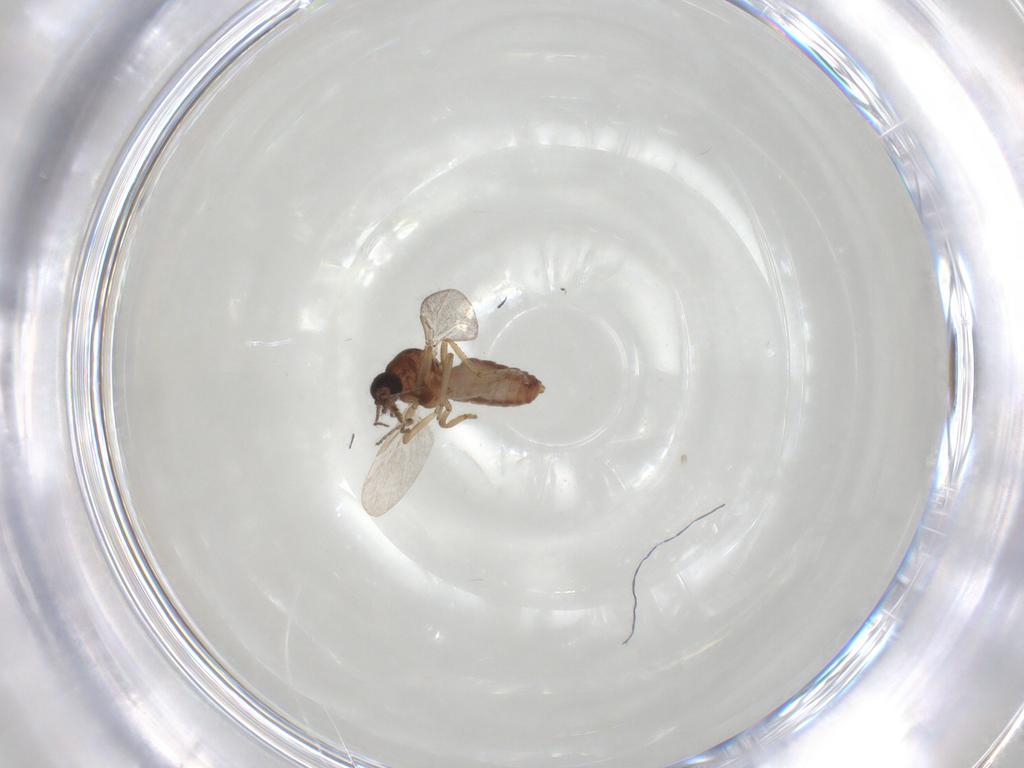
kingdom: Animalia
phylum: Arthropoda
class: Insecta
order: Diptera
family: Ceratopogonidae
